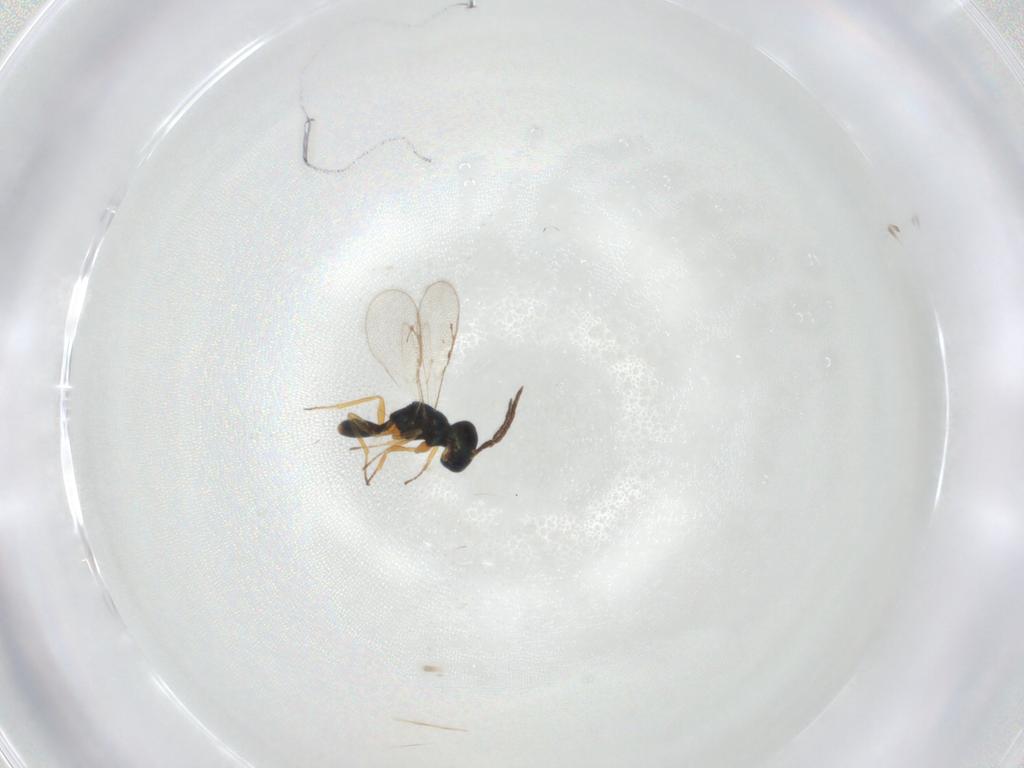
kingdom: Animalia
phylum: Arthropoda
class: Insecta
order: Hymenoptera
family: Pteromalidae
